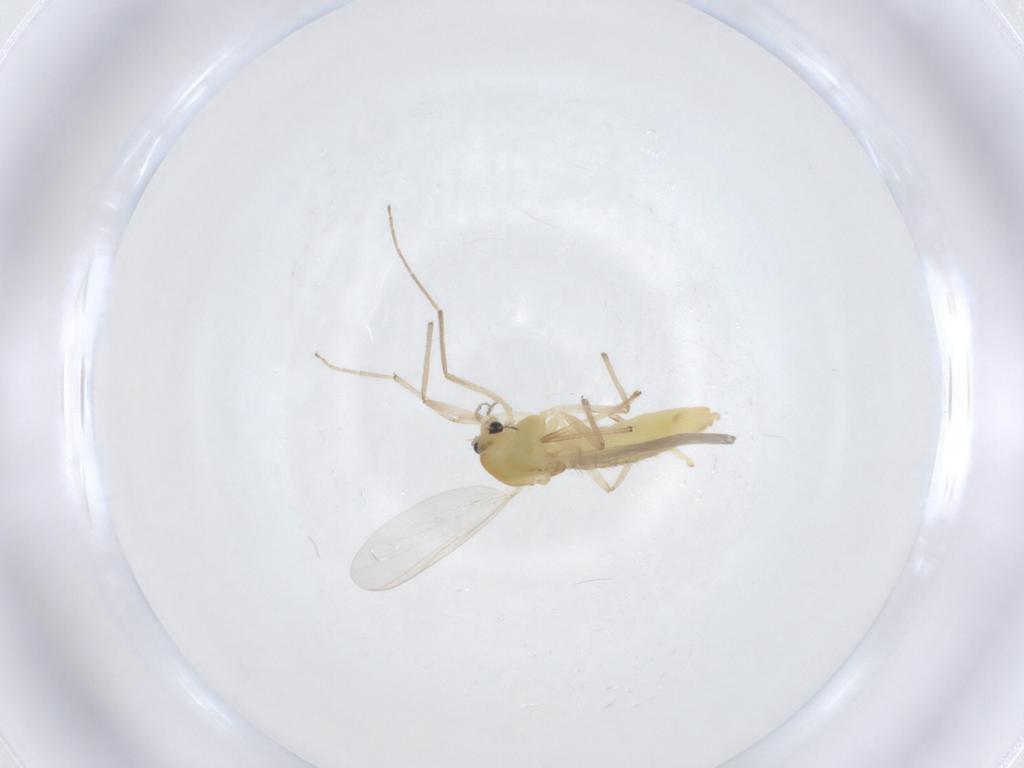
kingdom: Animalia
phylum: Arthropoda
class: Insecta
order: Diptera
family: Chironomidae
